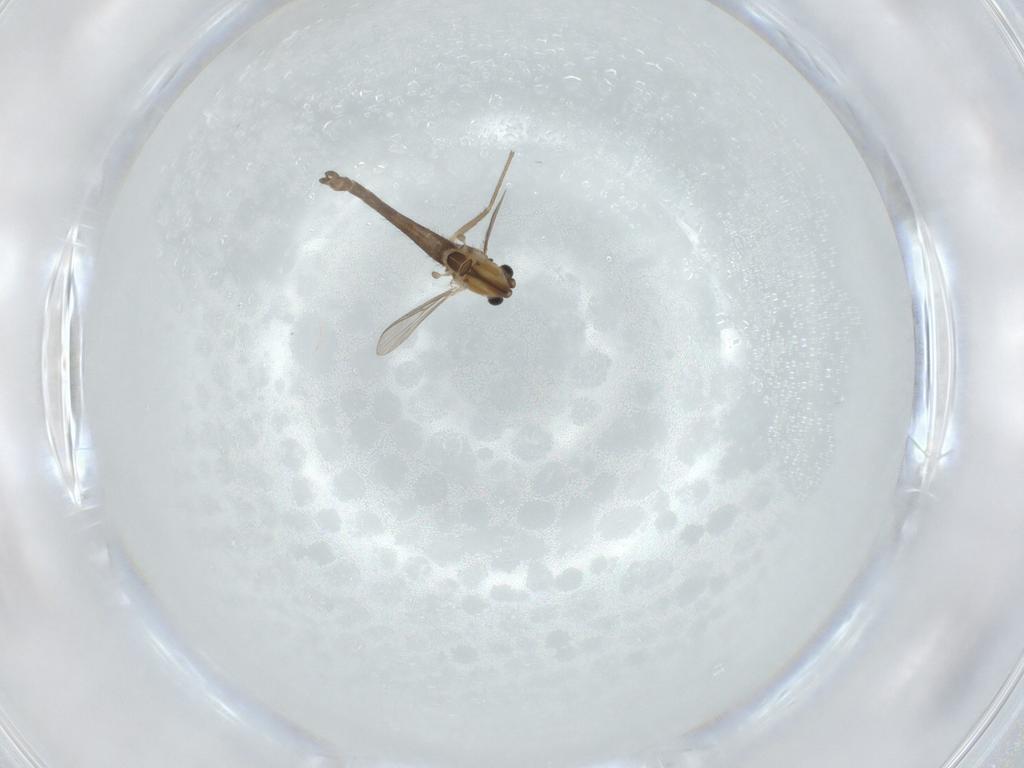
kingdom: Animalia
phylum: Arthropoda
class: Insecta
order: Diptera
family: Chironomidae
